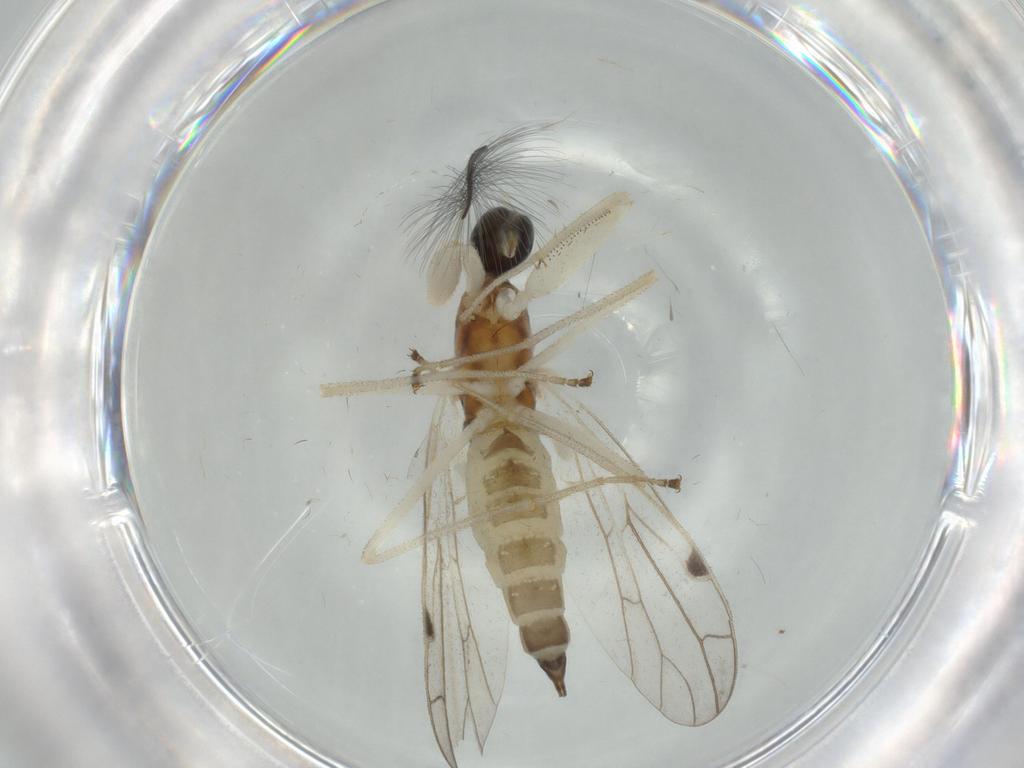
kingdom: Animalia
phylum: Arthropoda
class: Insecta
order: Diptera
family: Empididae
